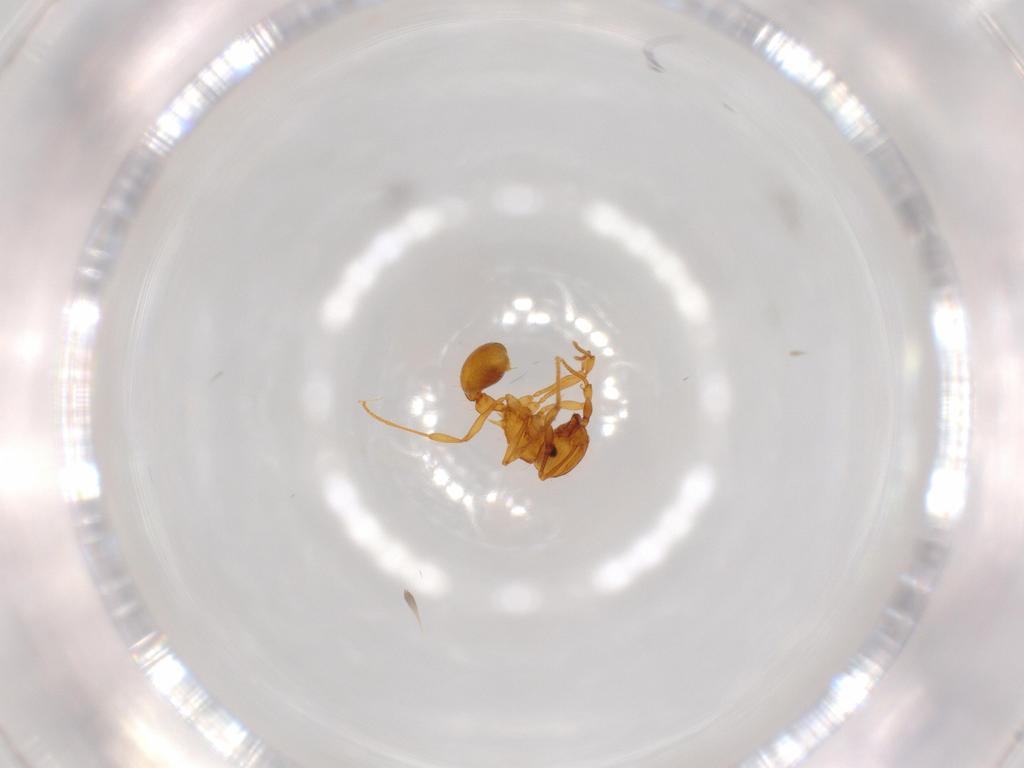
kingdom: Animalia
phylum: Arthropoda
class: Insecta
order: Hymenoptera
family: Formicidae
